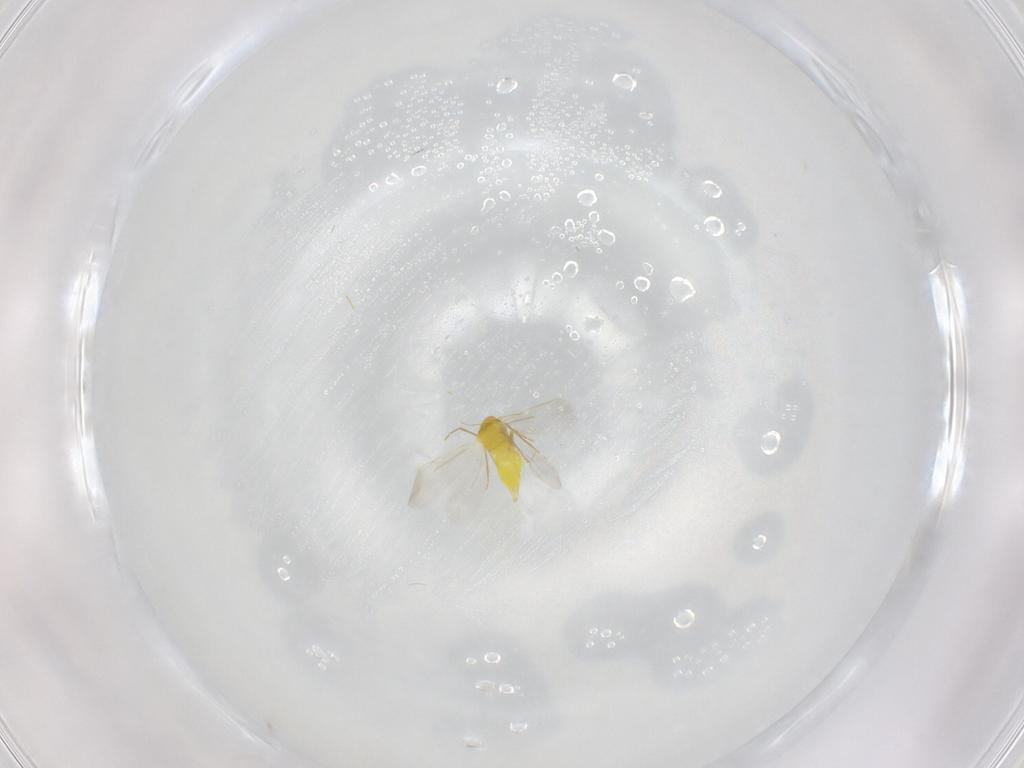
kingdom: Animalia
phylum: Arthropoda
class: Insecta
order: Hemiptera
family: Aleyrodidae
